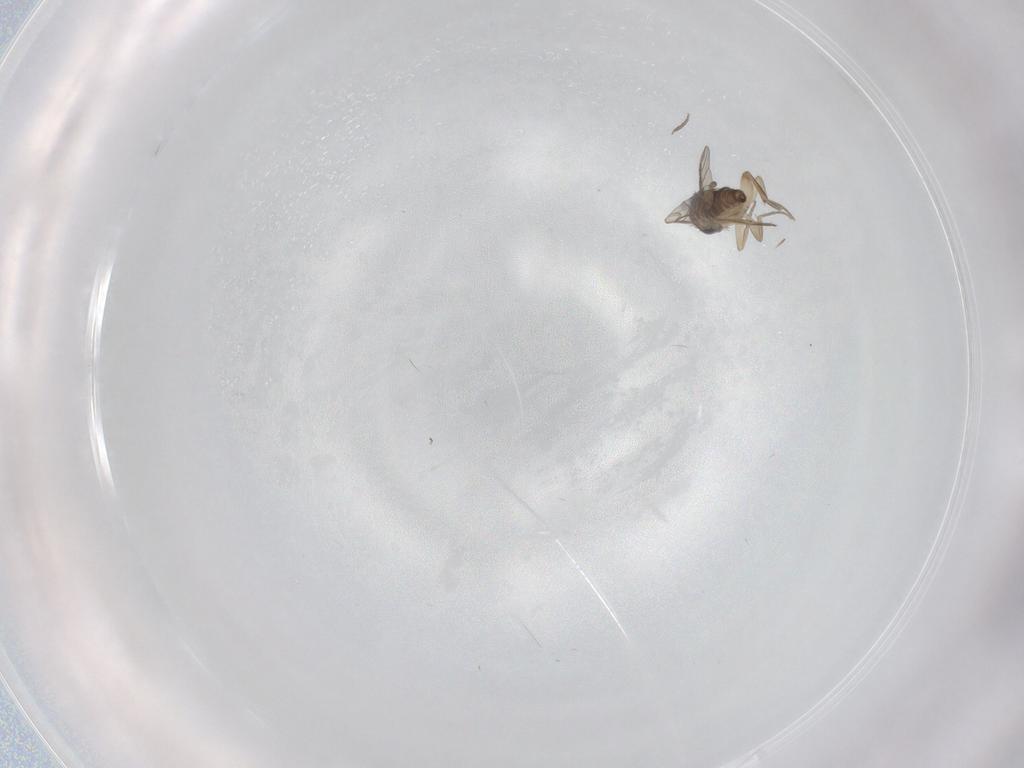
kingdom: Animalia
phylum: Arthropoda
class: Insecta
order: Diptera
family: Phoridae
